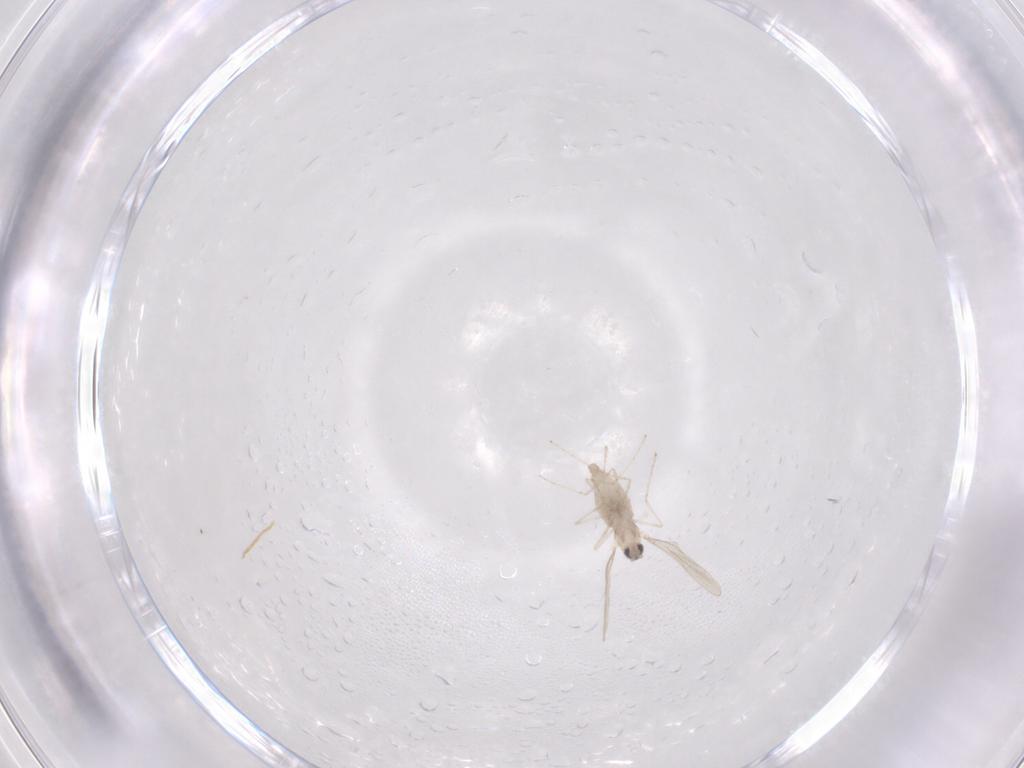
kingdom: Animalia
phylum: Arthropoda
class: Insecta
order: Diptera
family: Cecidomyiidae
